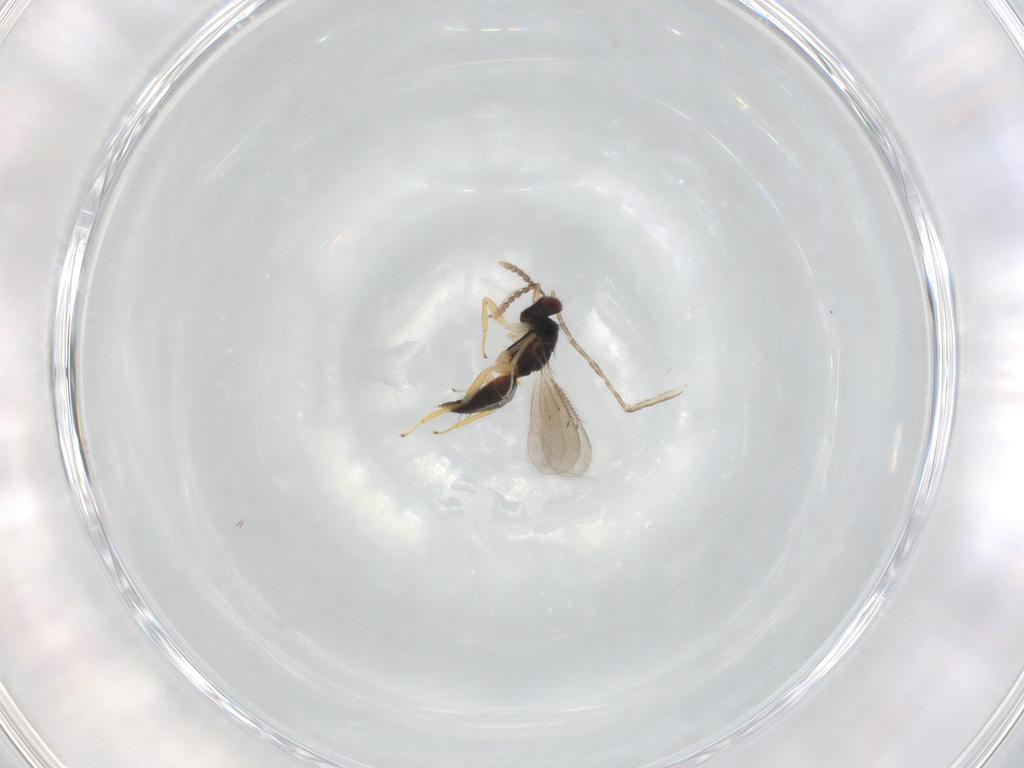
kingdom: Animalia
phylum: Arthropoda
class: Insecta
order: Hymenoptera
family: Eulophidae
